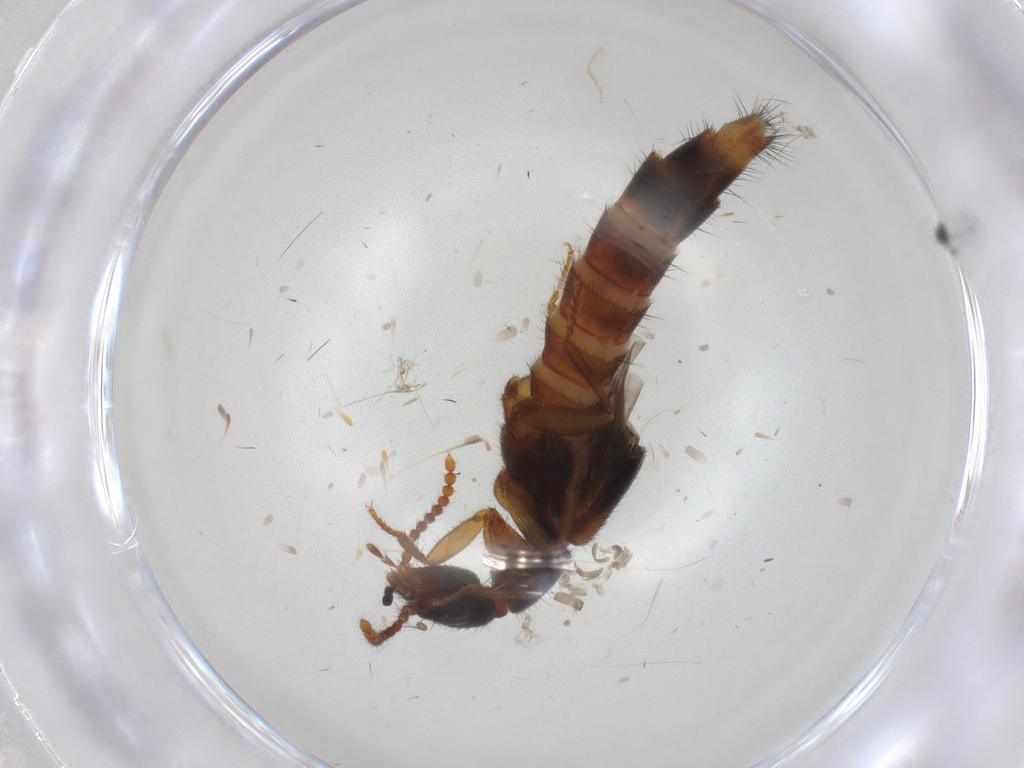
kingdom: Animalia
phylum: Arthropoda
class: Insecta
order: Coleoptera
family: Staphylinidae
